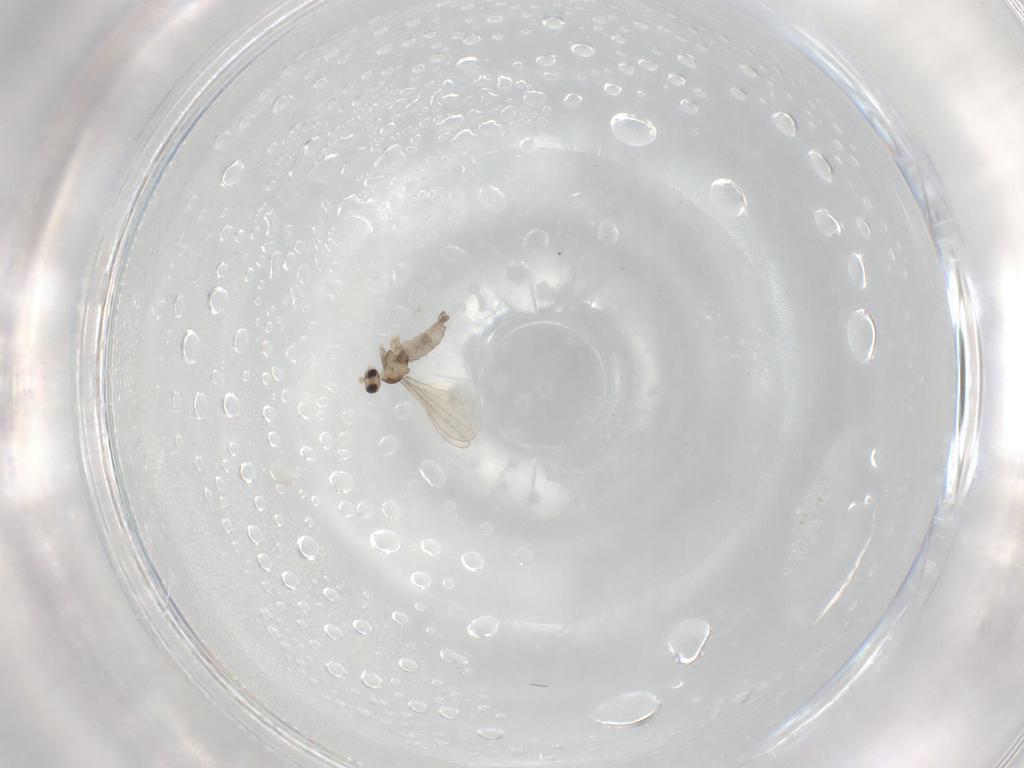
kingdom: Animalia
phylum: Arthropoda
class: Insecta
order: Diptera
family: Cecidomyiidae
